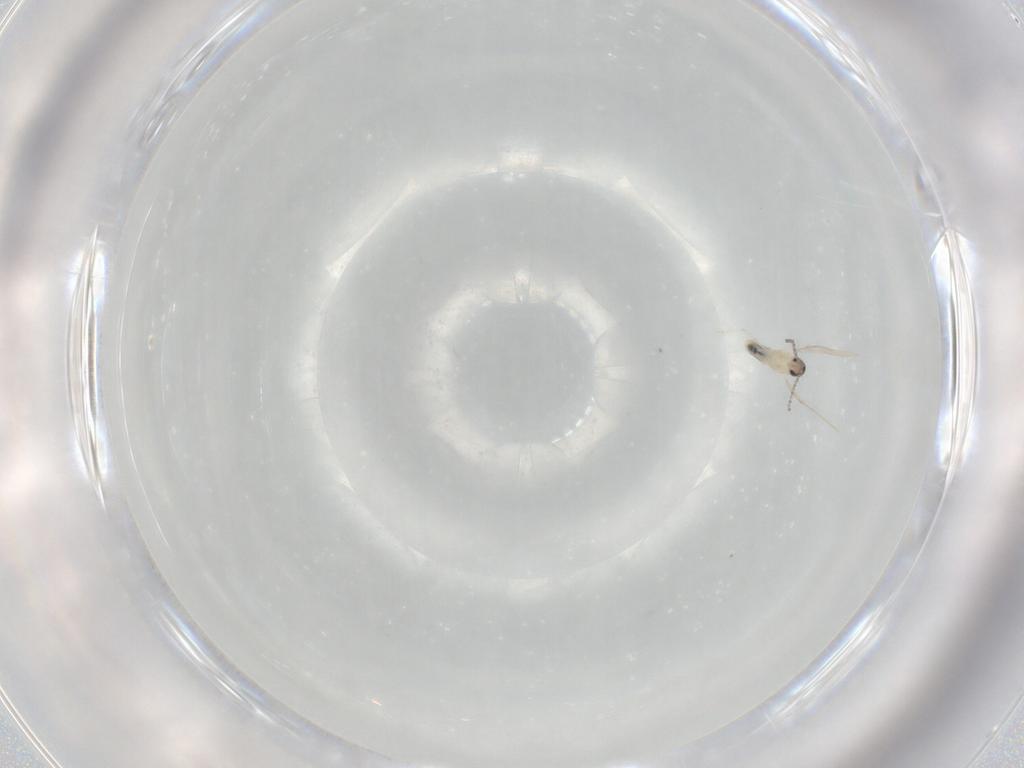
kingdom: Animalia
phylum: Arthropoda
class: Insecta
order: Diptera
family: Cecidomyiidae
